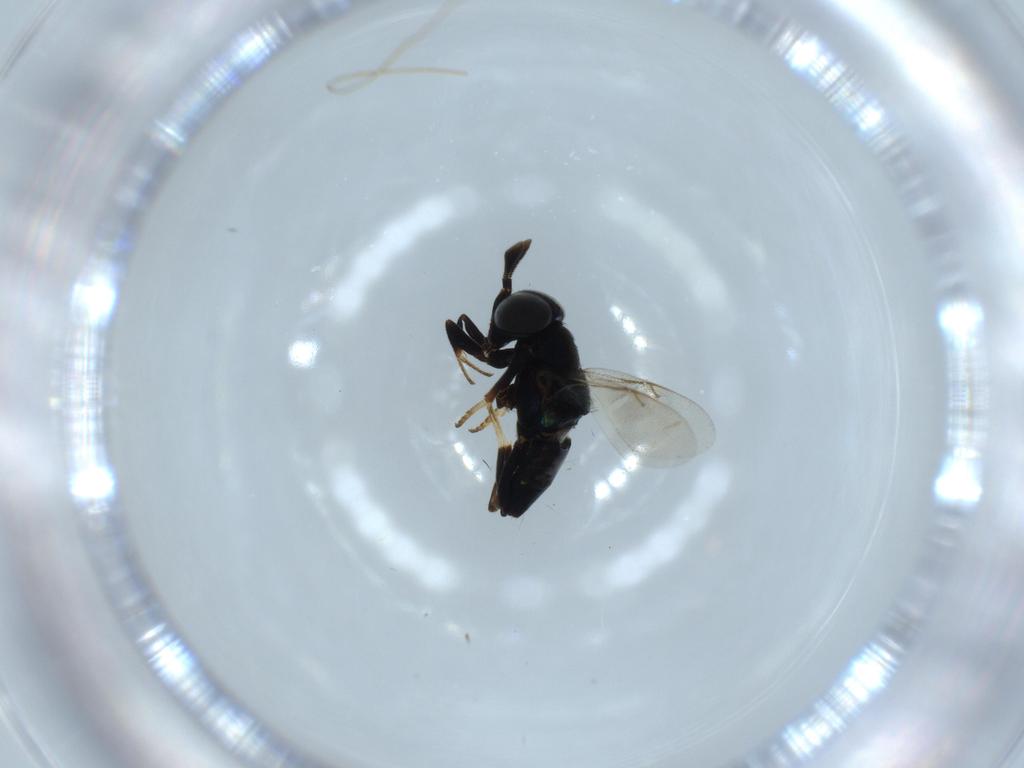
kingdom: Animalia
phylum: Arthropoda
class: Insecta
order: Hymenoptera
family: Encyrtidae
